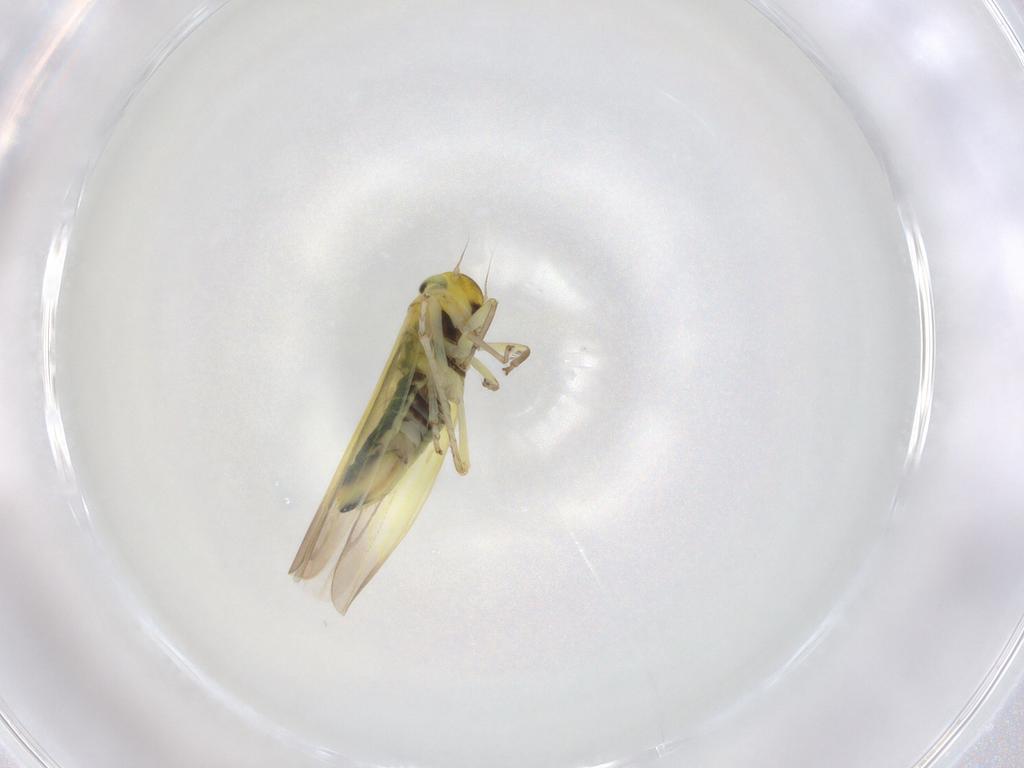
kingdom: Animalia
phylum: Arthropoda
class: Insecta
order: Hemiptera
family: Cicadellidae
